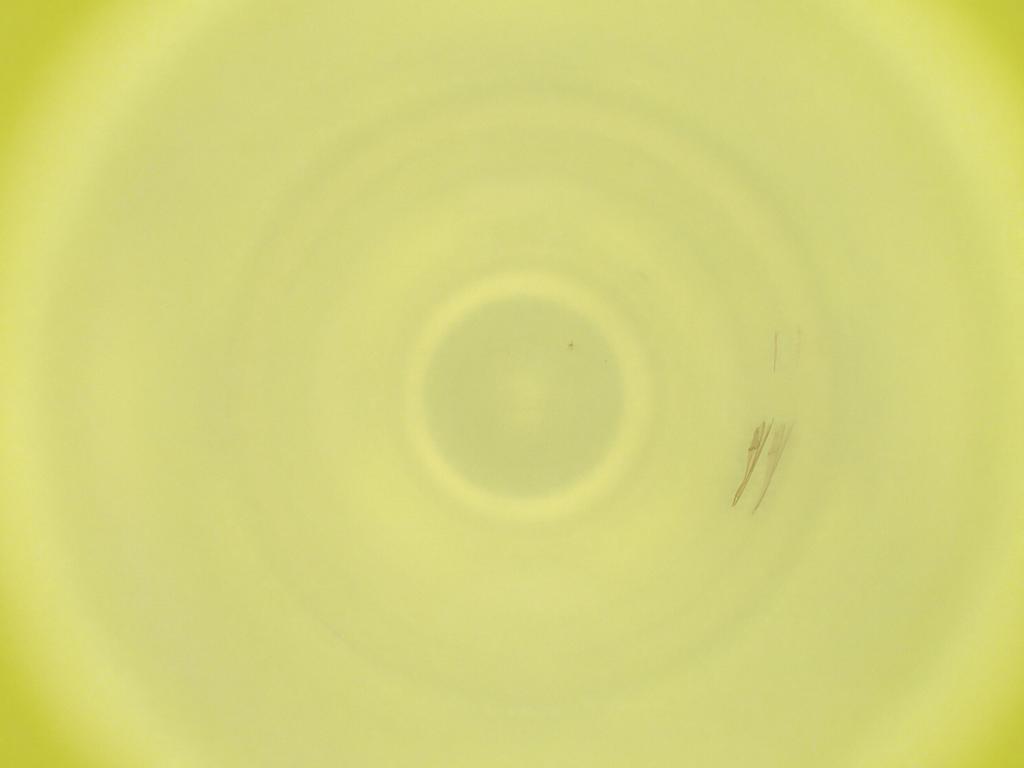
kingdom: Animalia
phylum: Arthropoda
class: Insecta
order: Diptera
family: Cecidomyiidae
